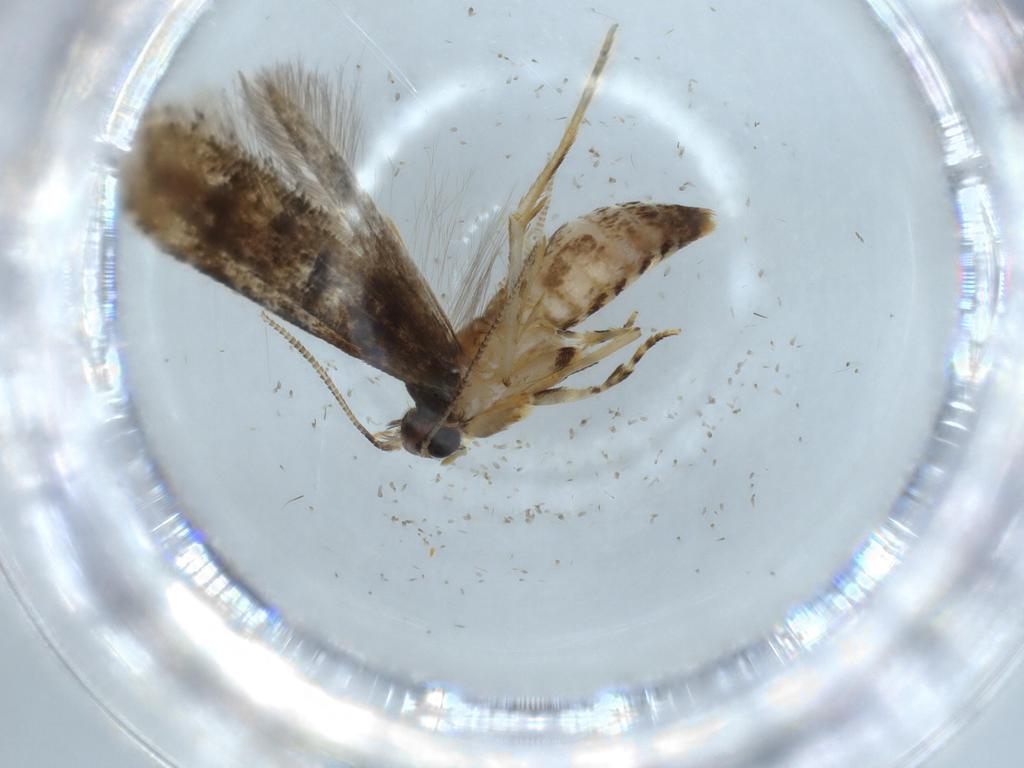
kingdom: Animalia
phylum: Arthropoda
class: Insecta
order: Lepidoptera
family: Tineidae
